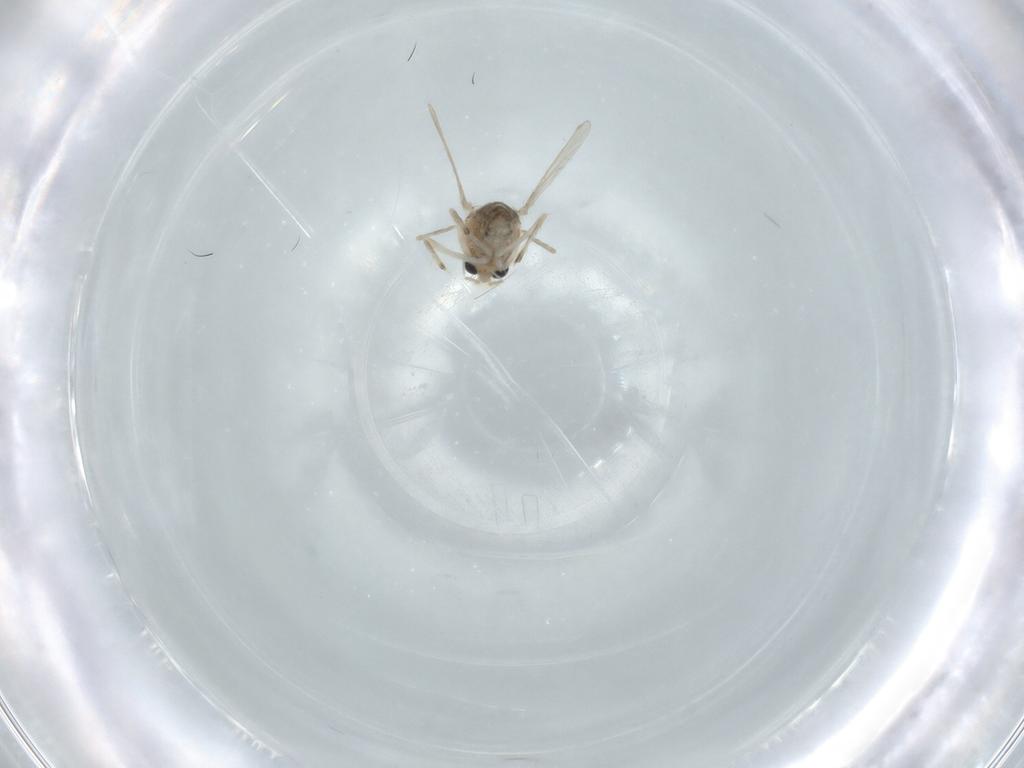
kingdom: Animalia
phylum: Arthropoda
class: Insecta
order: Diptera
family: Chironomidae
